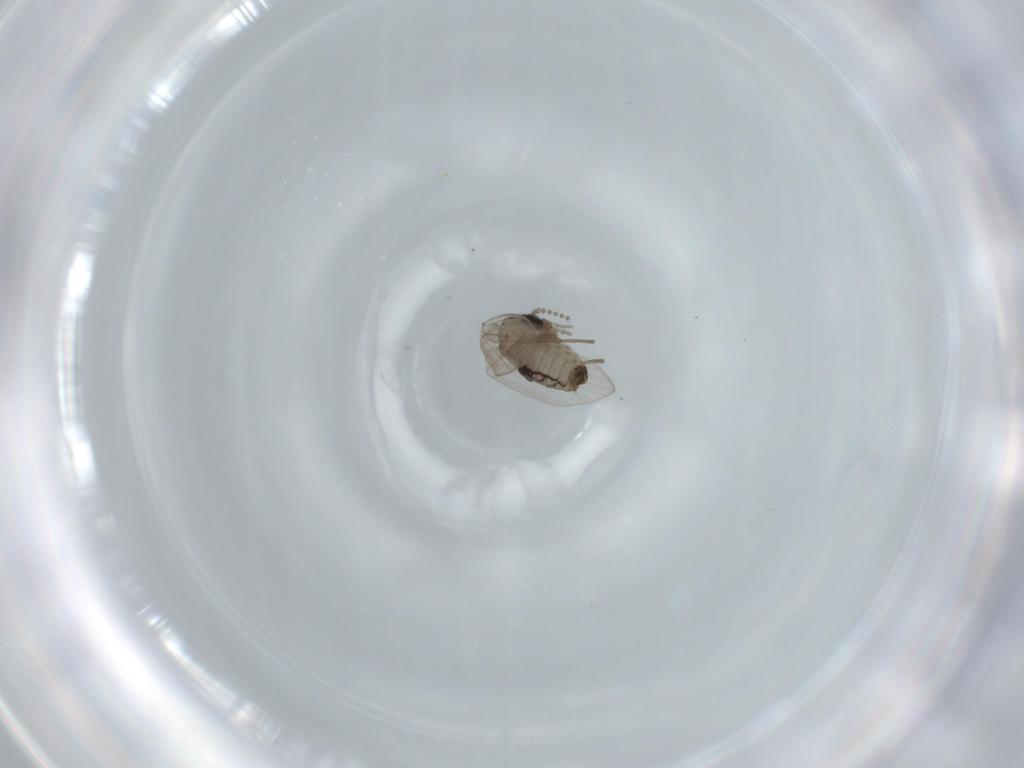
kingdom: Animalia
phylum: Arthropoda
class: Insecta
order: Diptera
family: Psychodidae
